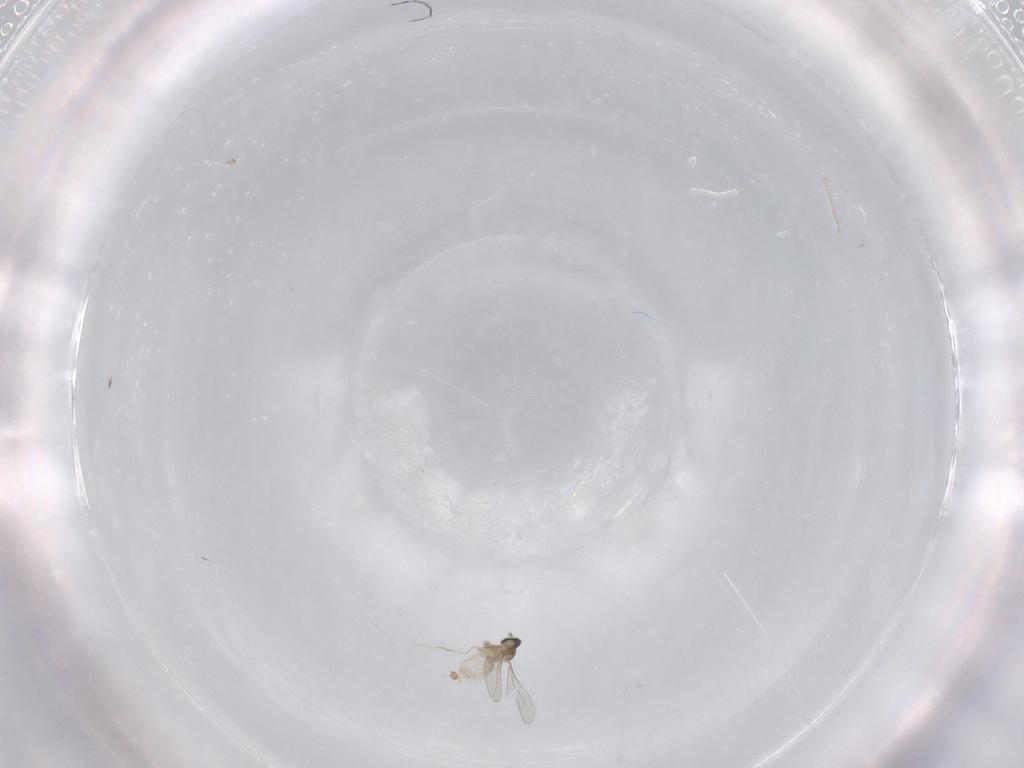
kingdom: Animalia
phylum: Arthropoda
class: Insecta
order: Diptera
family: Cecidomyiidae
